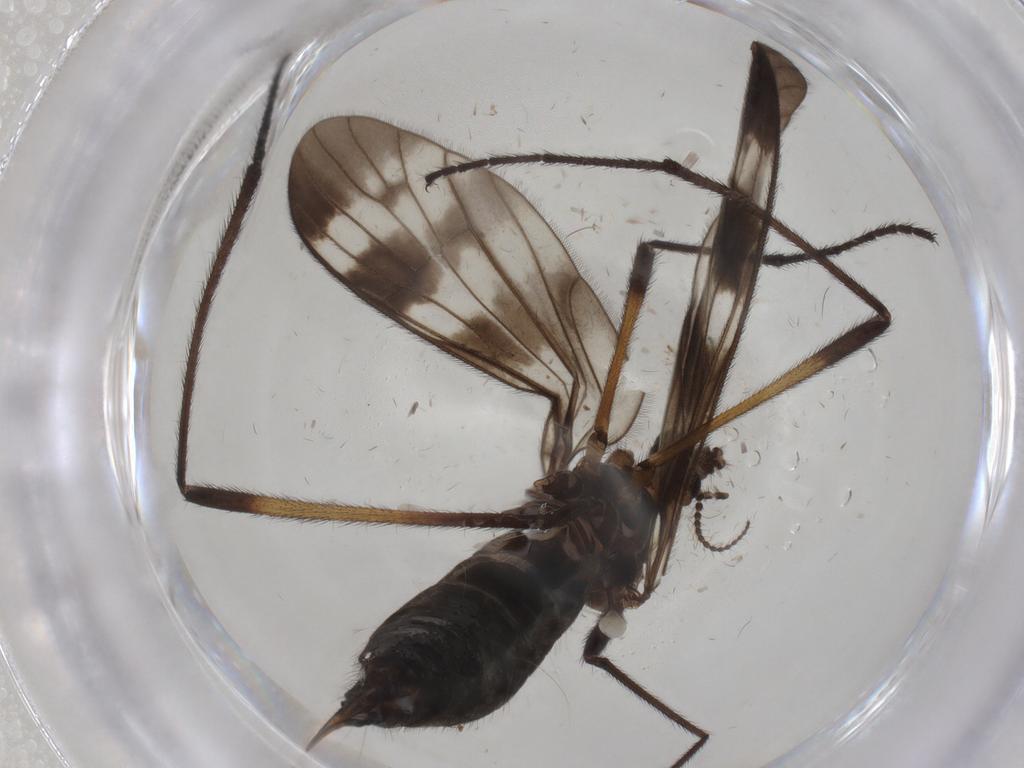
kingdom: Animalia
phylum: Arthropoda
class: Insecta
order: Diptera
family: Limoniidae
